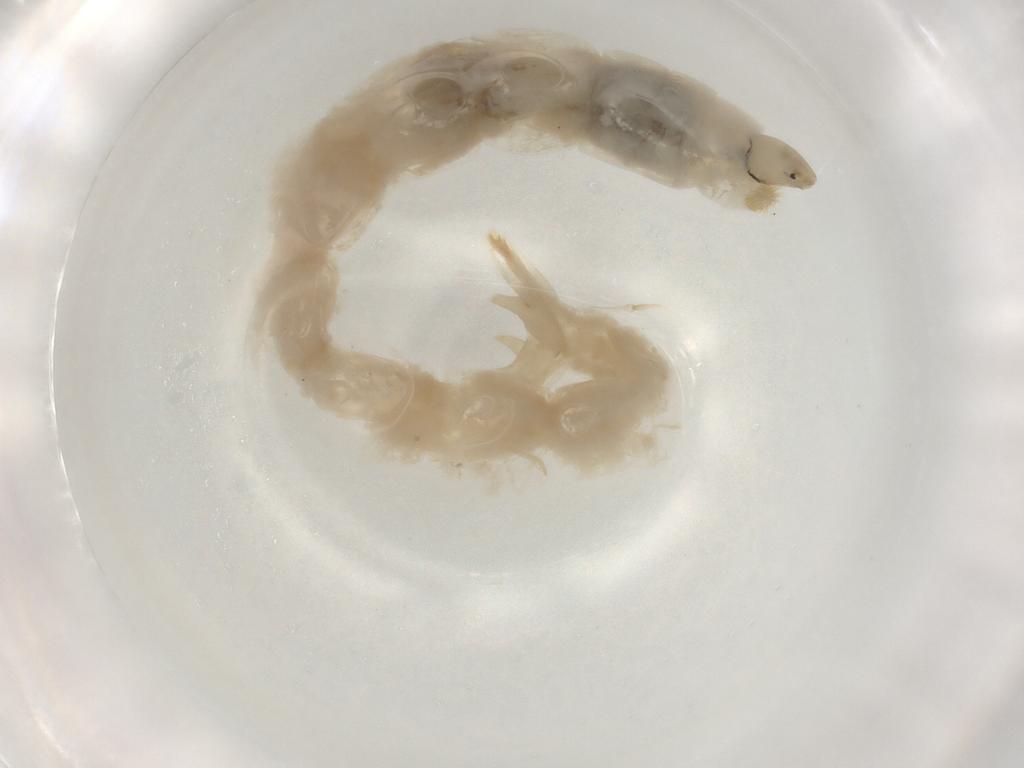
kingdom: Animalia
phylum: Arthropoda
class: Insecta
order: Diptera
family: Chironomidae
